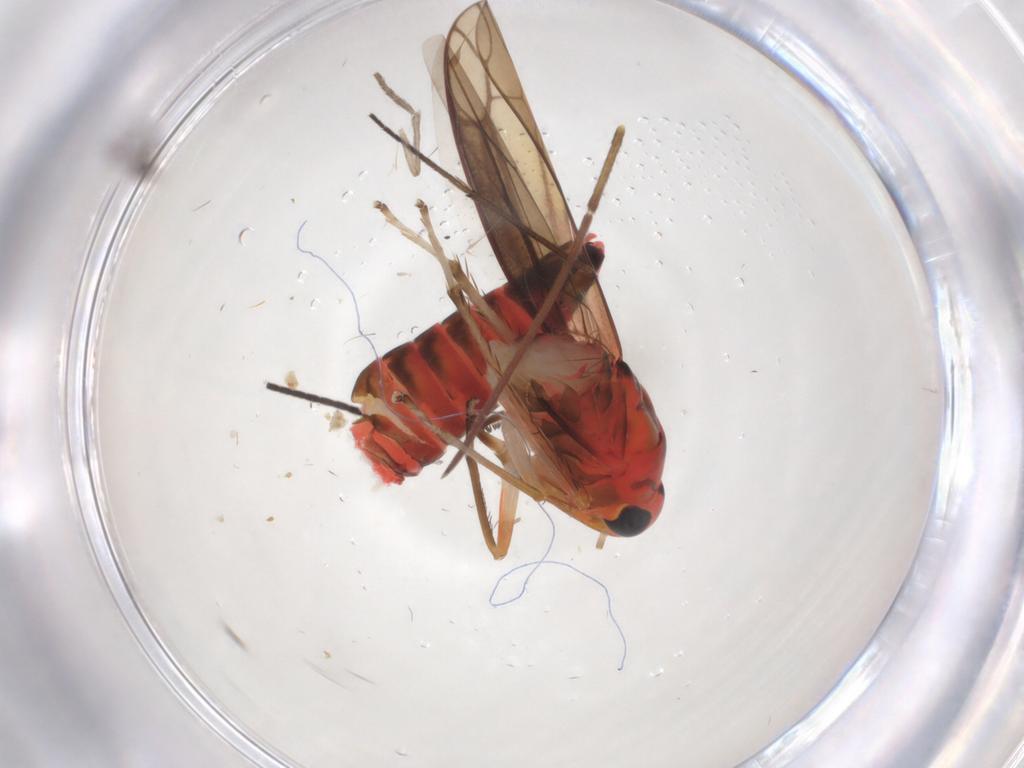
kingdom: Animalia
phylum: Arthropoda
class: Insecta
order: Hemiptera
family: Cicadellidae
